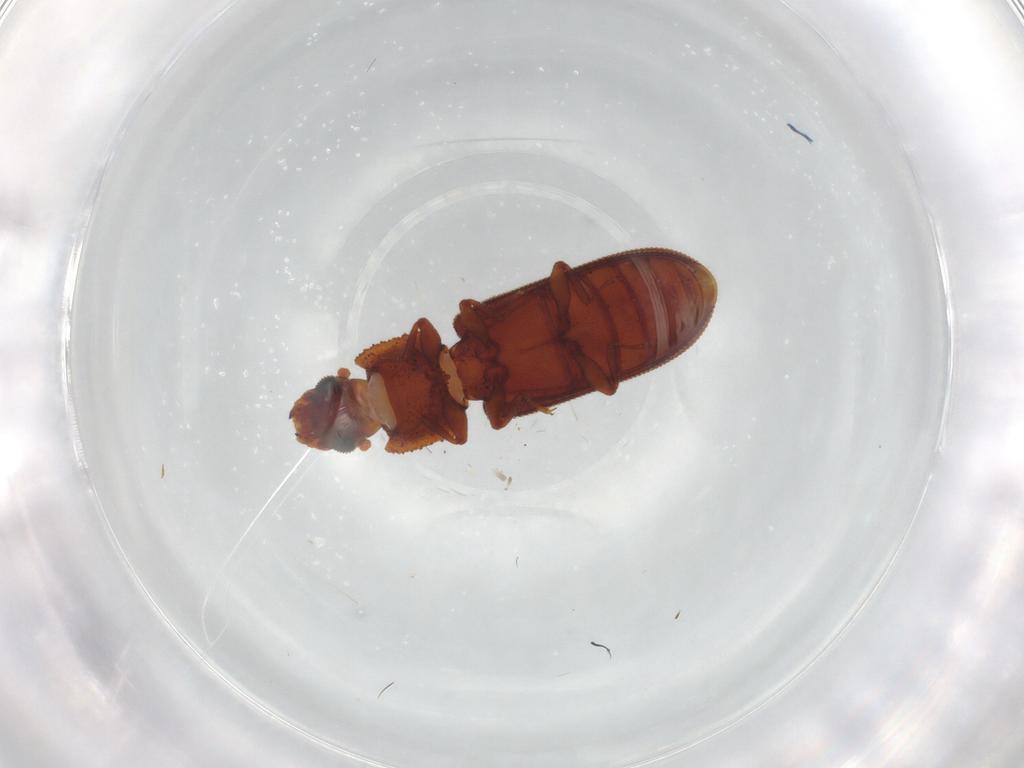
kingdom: Animalia
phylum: Arthropoda
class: Insecta
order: Coleoptera
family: Zopheridae
